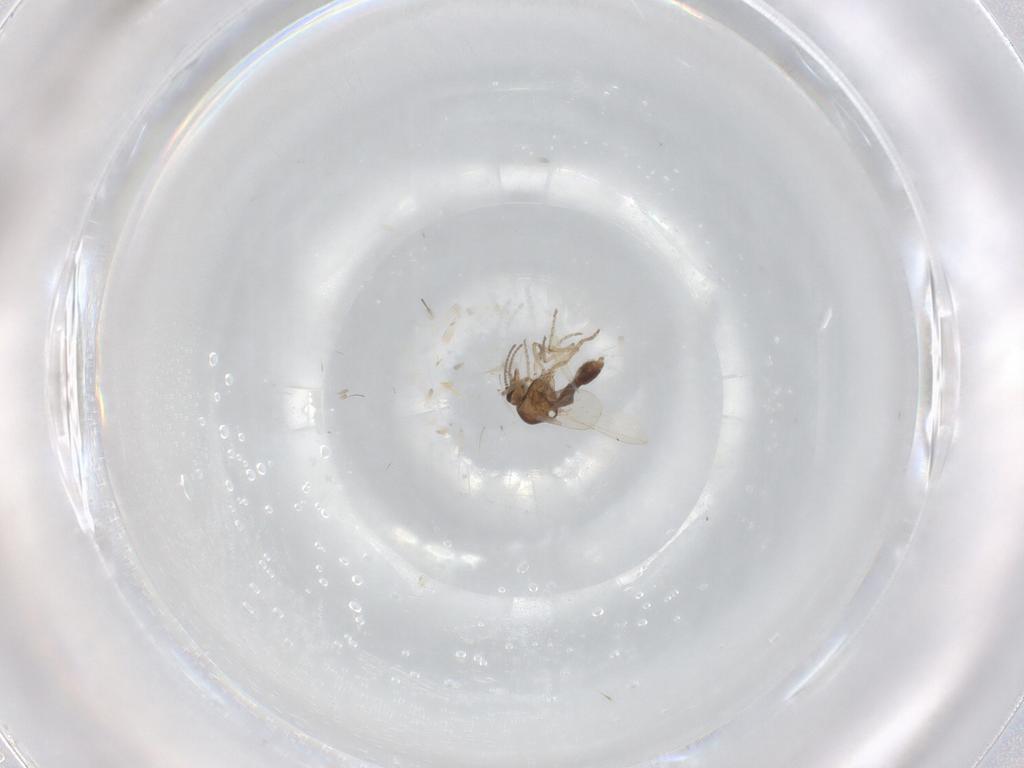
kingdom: Animalia
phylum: Arthropoda
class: Insecta
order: Diptera
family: Ceratopogonidae
